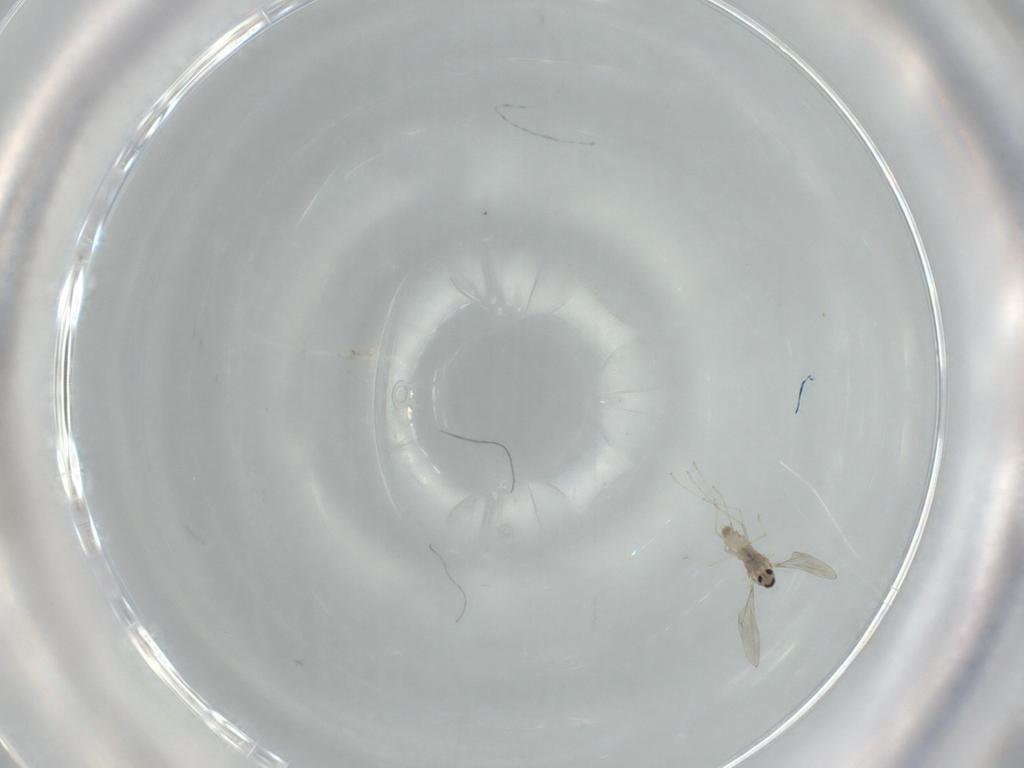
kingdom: Animalia
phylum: Arthropoda
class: Insecta
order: Diptera
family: Cecidomyiidae
